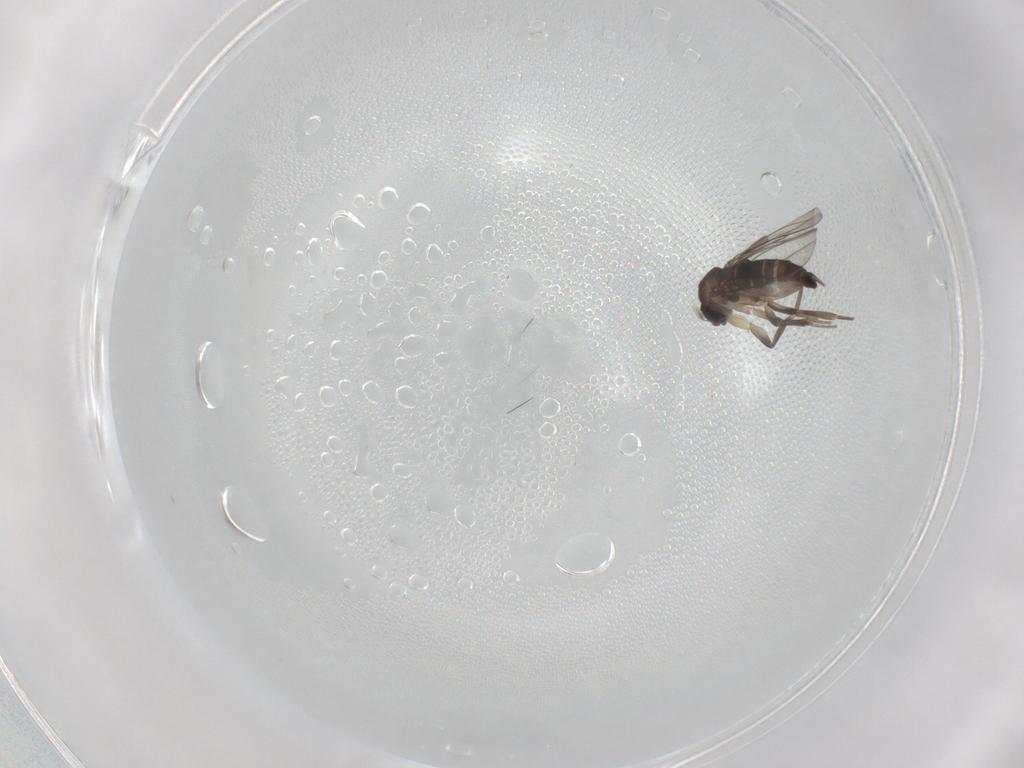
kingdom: Animalia
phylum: Arthropoda
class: Insecta
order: Diptera
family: Phoridae
